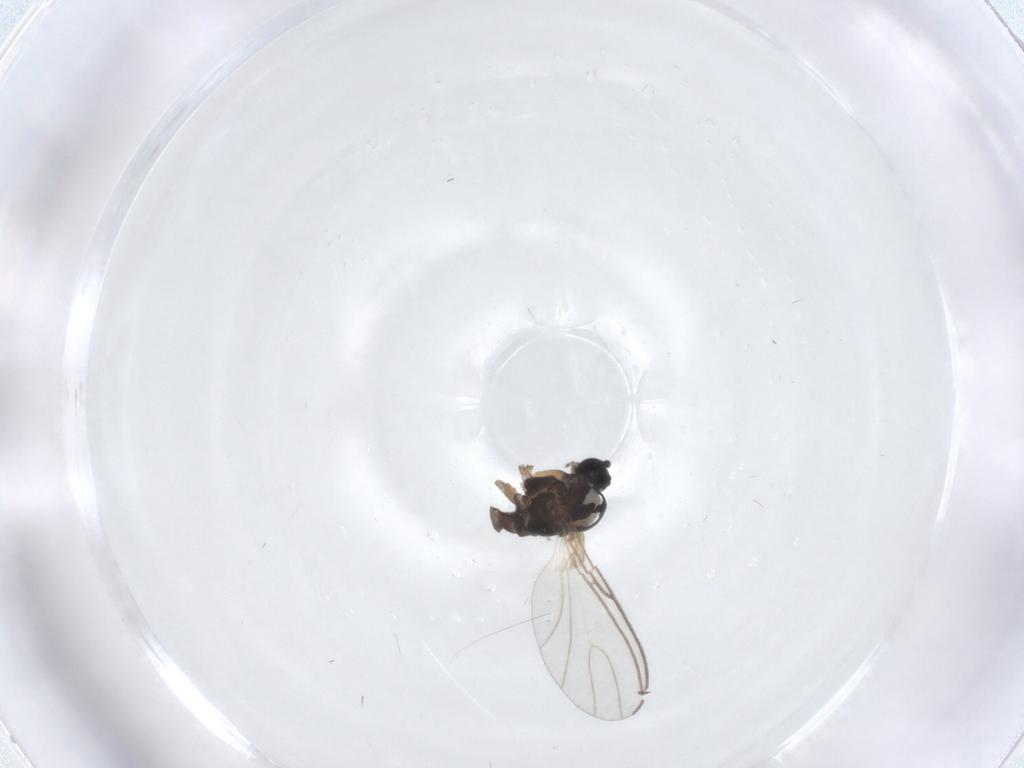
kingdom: Animalia
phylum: Arthropoda
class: Insecta
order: Diptera
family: Sciaridae
